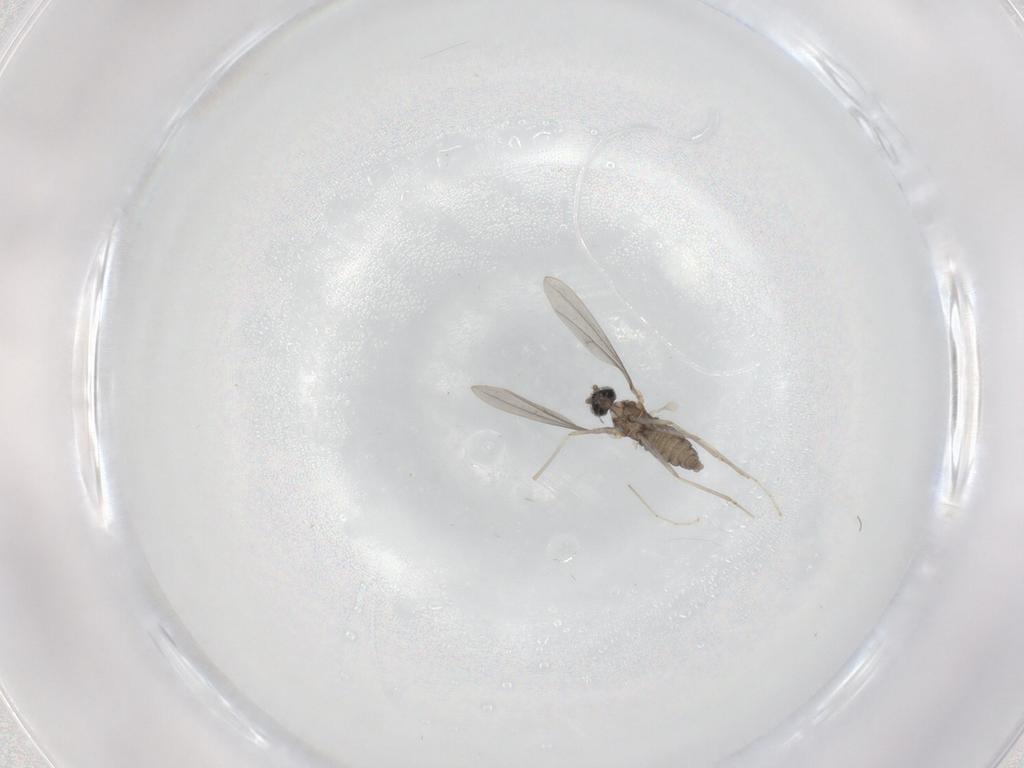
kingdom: Animalia
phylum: Arthropoda
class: Insecta
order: Diptera
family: Cecidomyiidae
